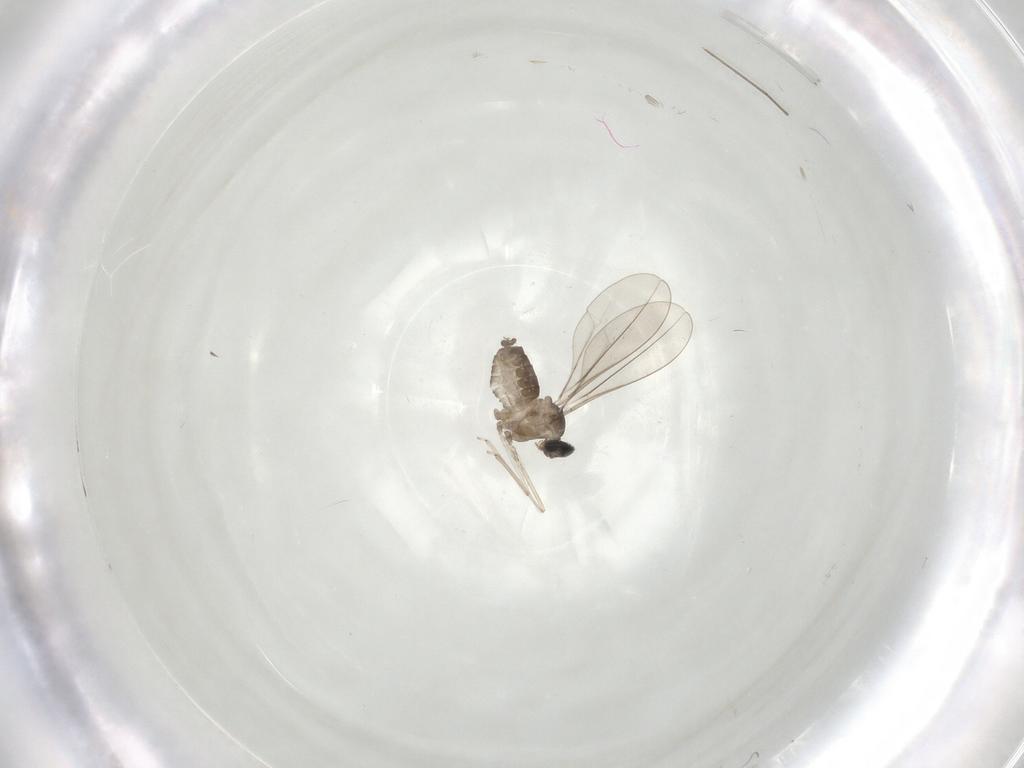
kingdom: Animalia
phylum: Arthropoda
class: Insecta
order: Diptera
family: Cecidomyiidae
